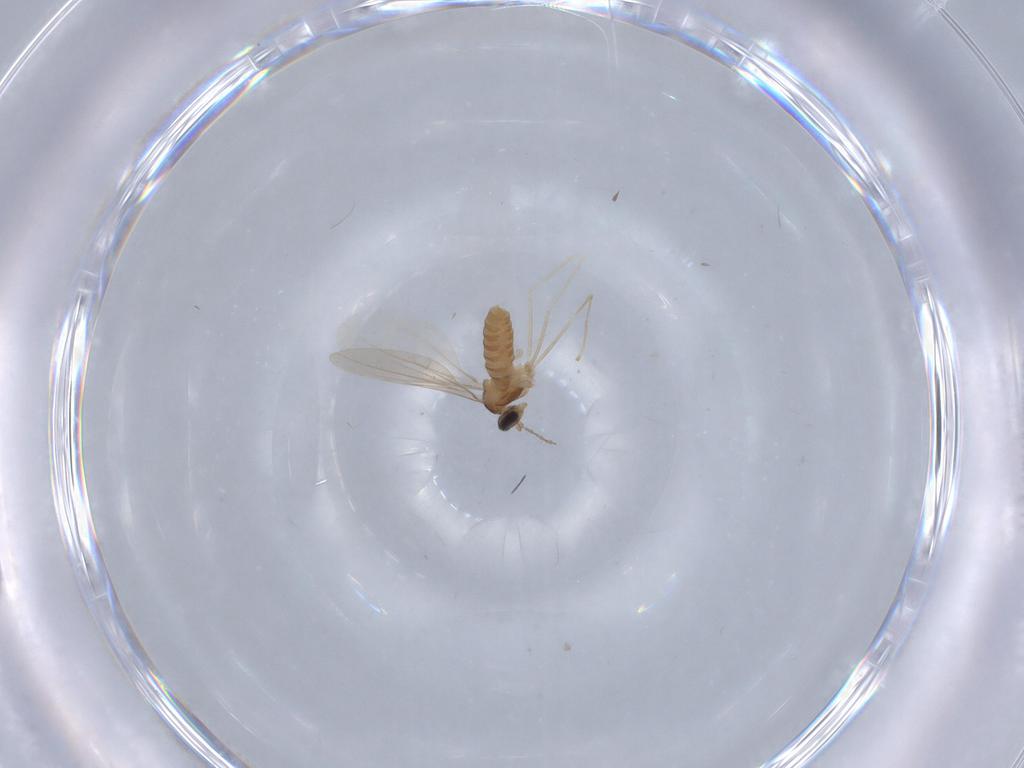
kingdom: Animalia
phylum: Arthropoda
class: Insecta
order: Diptera
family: Cecidomyiidae
